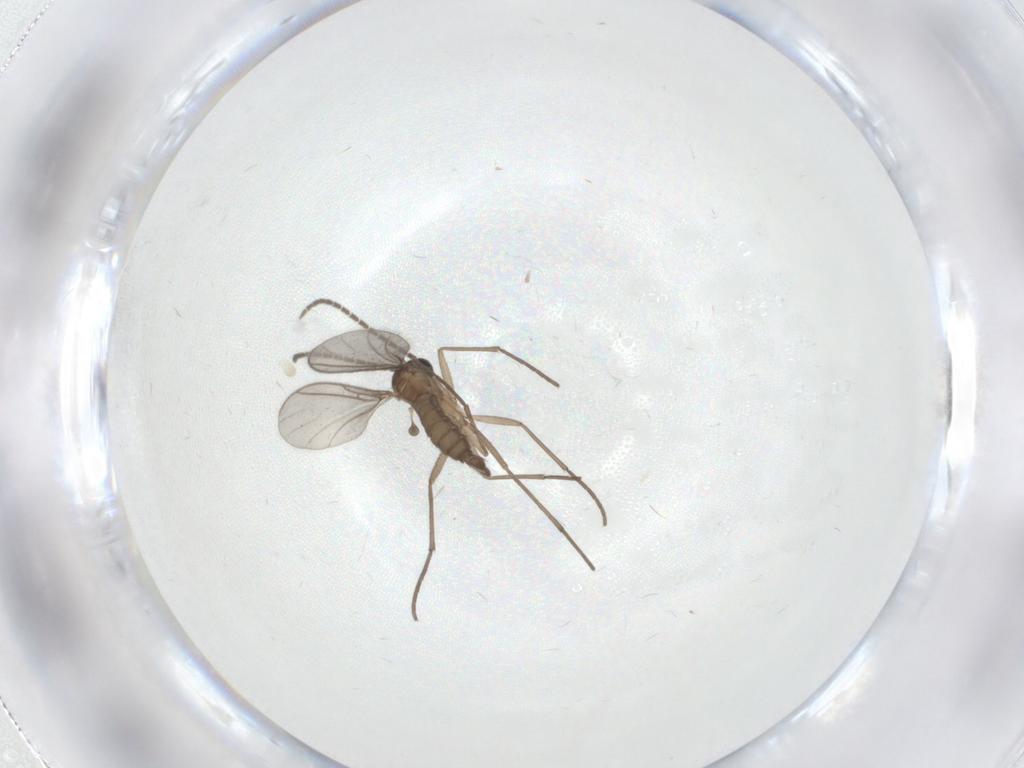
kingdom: Animalia
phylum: Arthropoda
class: Insecta
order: Diptera
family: Sciaridae
